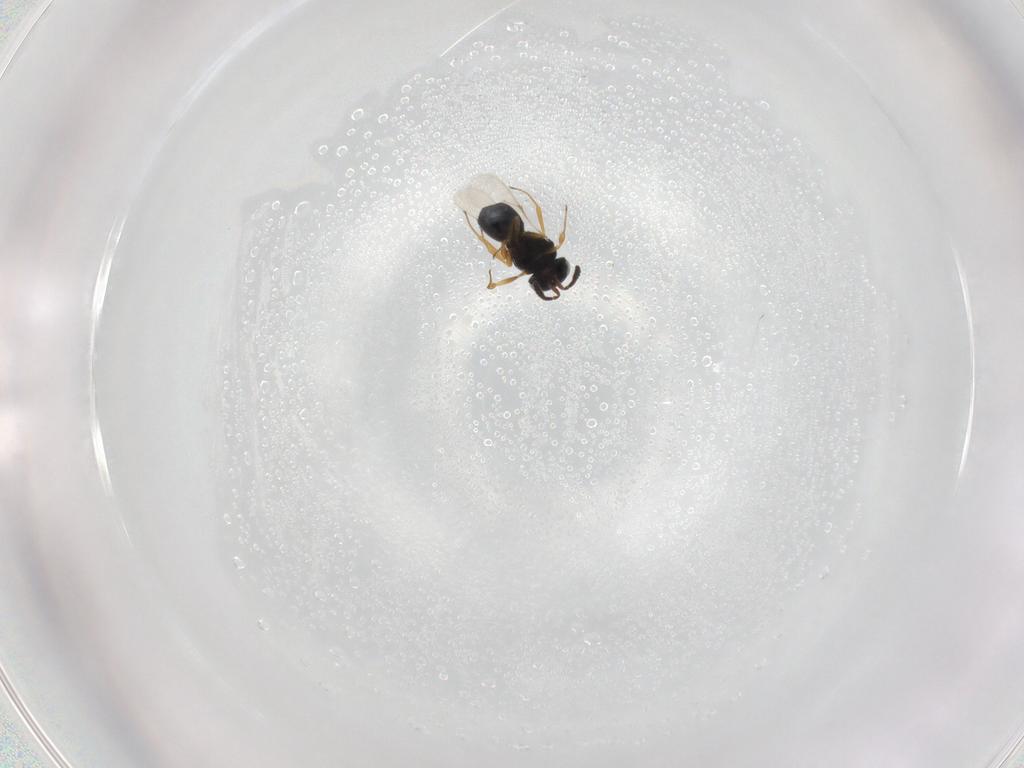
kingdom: Animalia
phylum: Arthropoda
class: Insecta
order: Hymenoptera
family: Scelionidae
